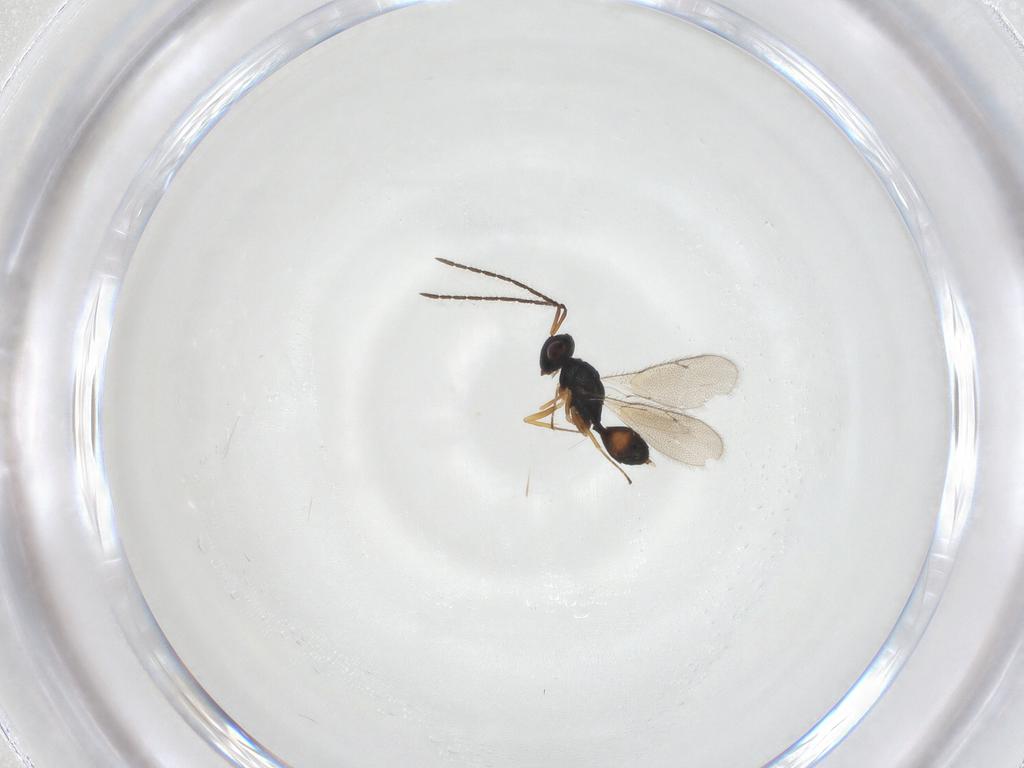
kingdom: Animalia
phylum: Arthropoda
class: Insecta
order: Hymenoptera
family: Pteromalidae
